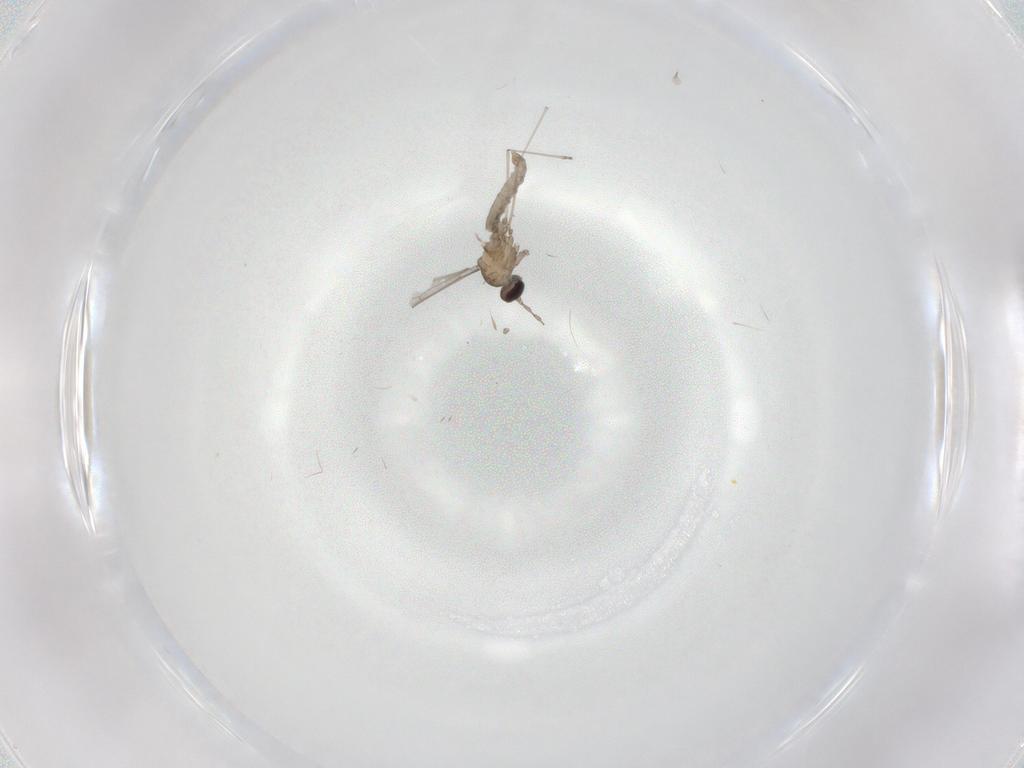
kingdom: Animalia
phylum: Arthropoda
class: Insecta
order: Diptera
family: Cecidomyiidae
